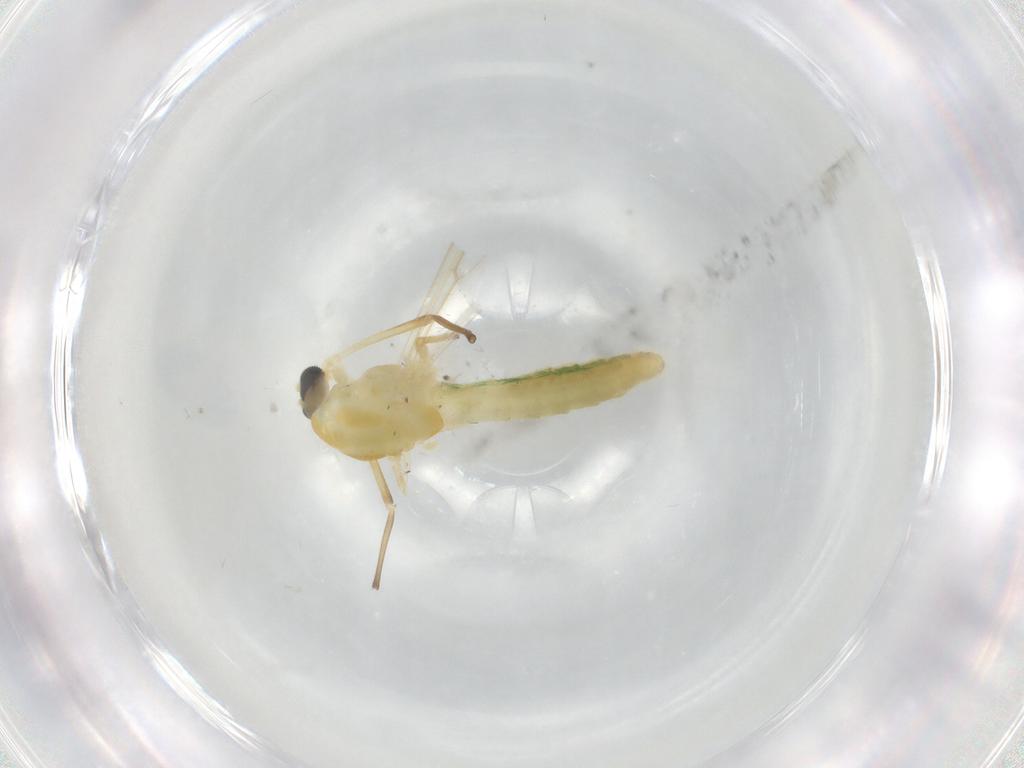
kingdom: Animalia
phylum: Arthropoda
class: Insecta
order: Diptera
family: Chironomidae
